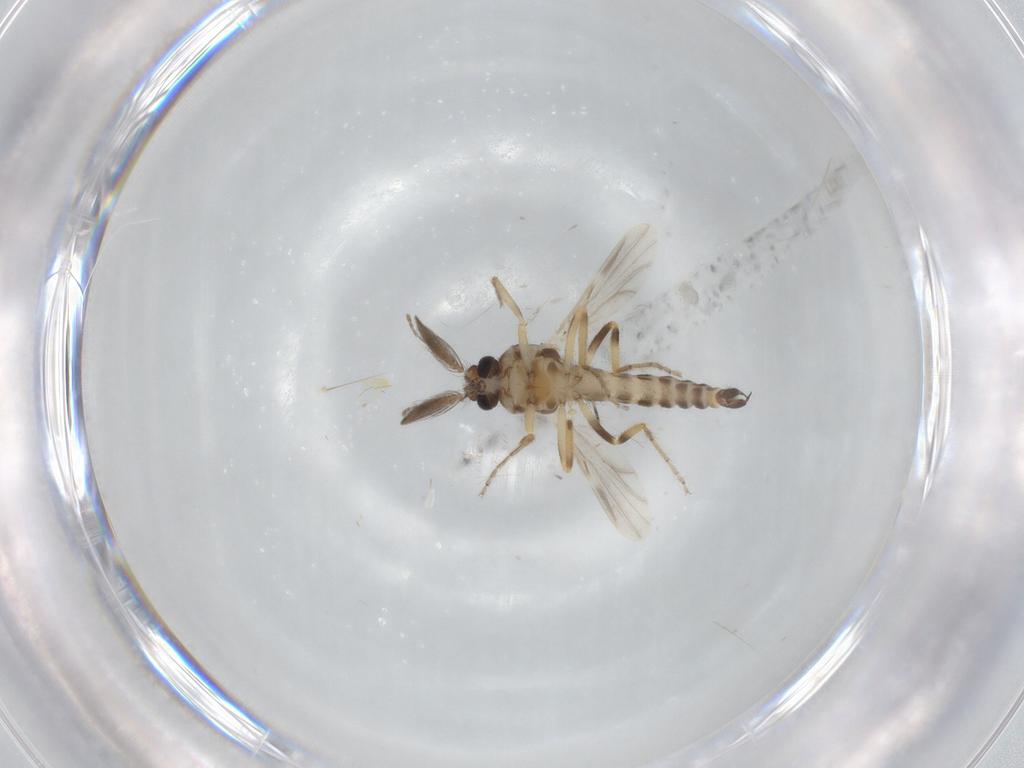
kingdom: Animalia
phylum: Arthropoda
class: Insecta
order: Diptera
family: Ceratopogonidae
